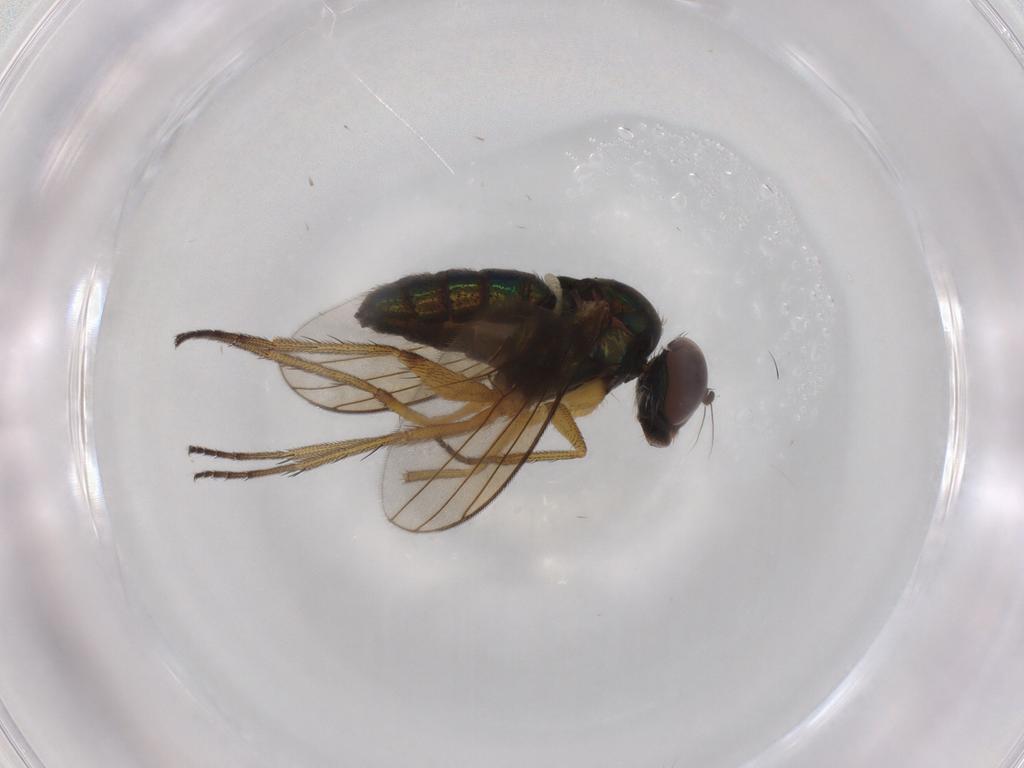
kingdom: Animalia
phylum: Arthropoda
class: Insecta
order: Diptera
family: Dolichopodidae
